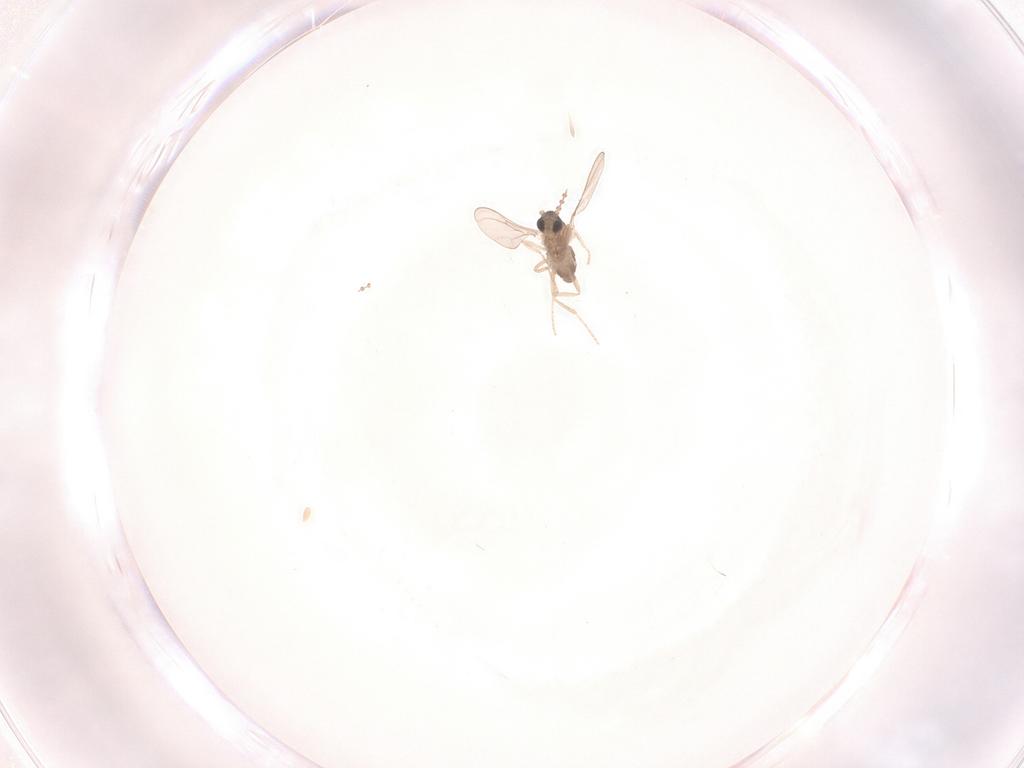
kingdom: Animalia
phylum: Arthropoda
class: Insecta
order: Diptera
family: Cecidomyiidae
